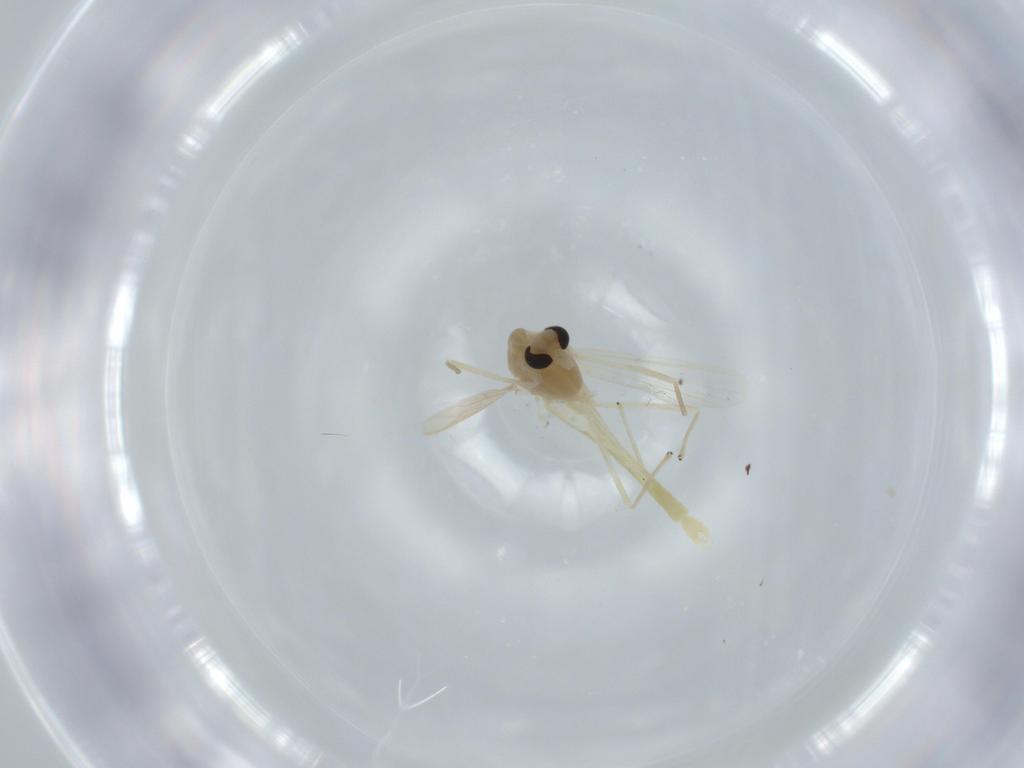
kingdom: Animalia
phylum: Arthropoda
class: Insecta
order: Diptera
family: Chironomidae
